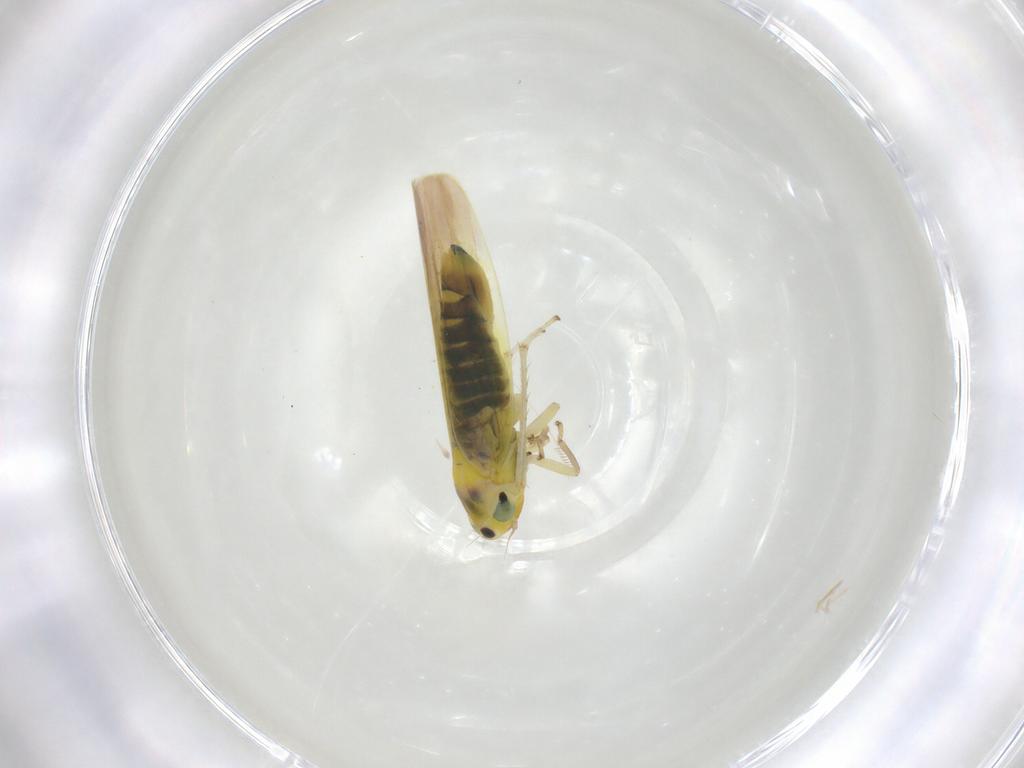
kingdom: Animalia
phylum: Arthropoda
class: Insecta
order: Hemiptera
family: Cicadellidae
